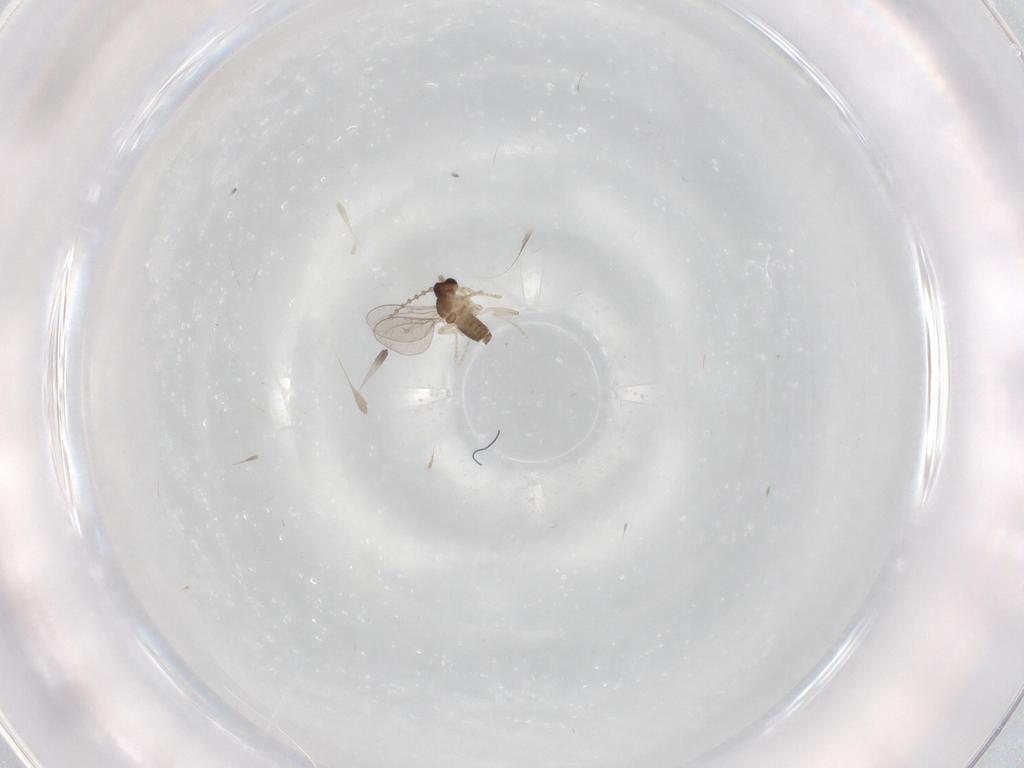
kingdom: Animalia
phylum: Arthropoda
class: Insecta
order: Diptera
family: Cecidomyiidae
